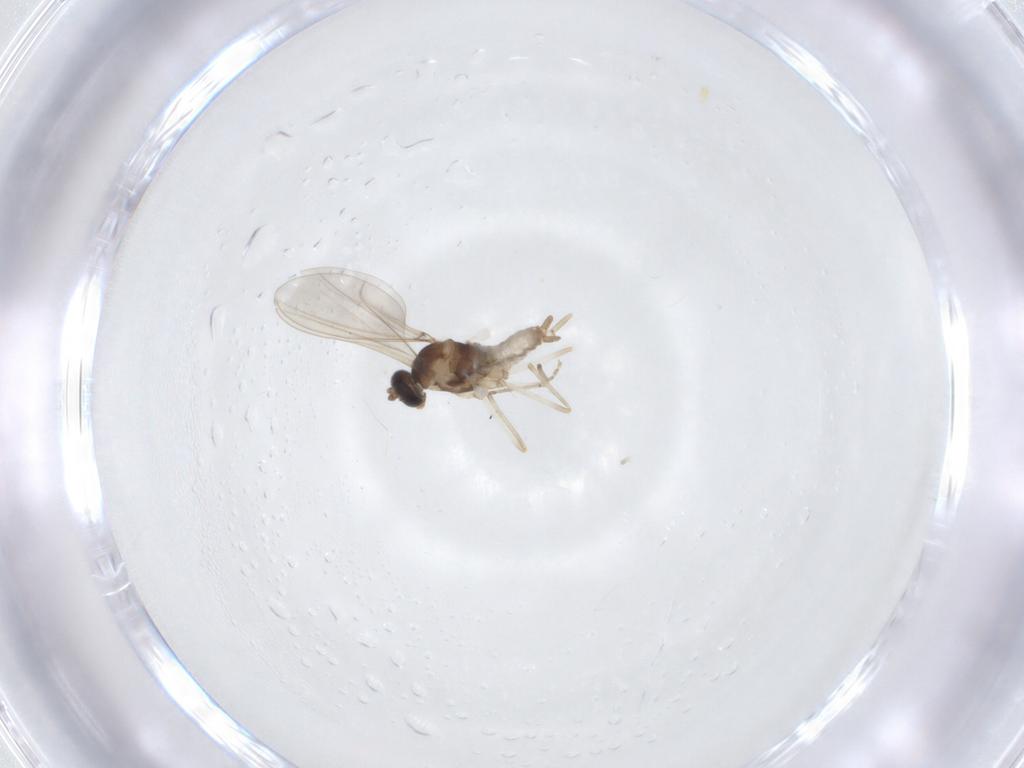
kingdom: Animalia
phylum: Arthropoda
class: Insecta
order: Diptera
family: Cecidomyiidae
